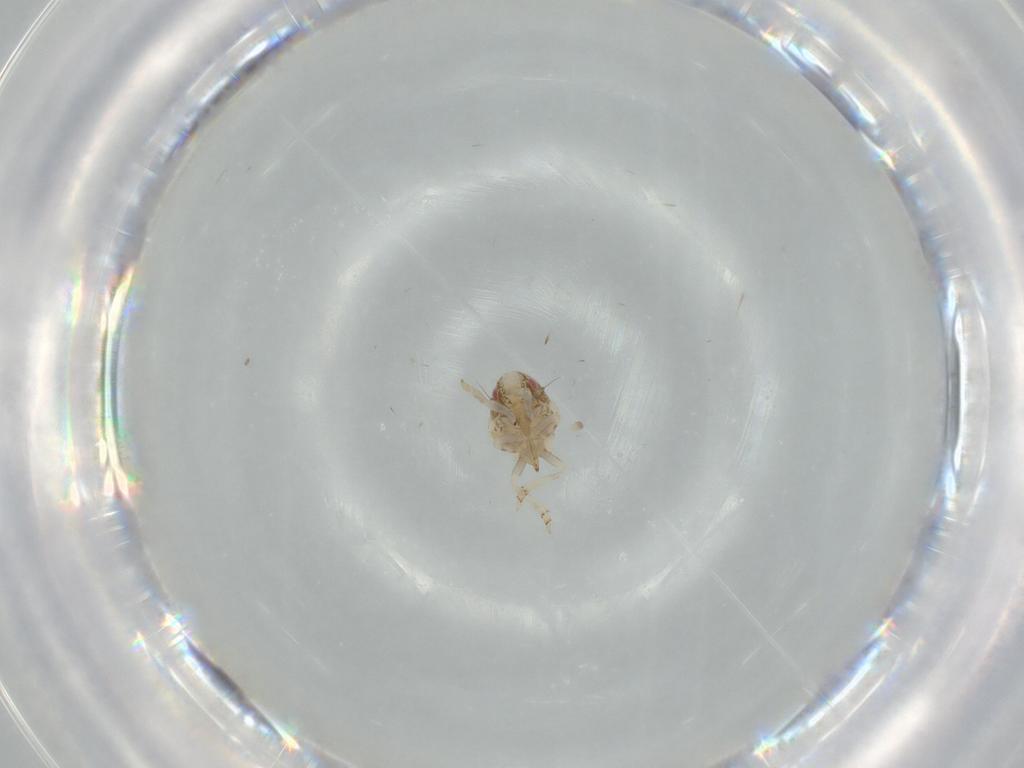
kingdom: Animalia
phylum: Arthropoda
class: Insecta
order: Hemiptera
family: Acanaloniidae
